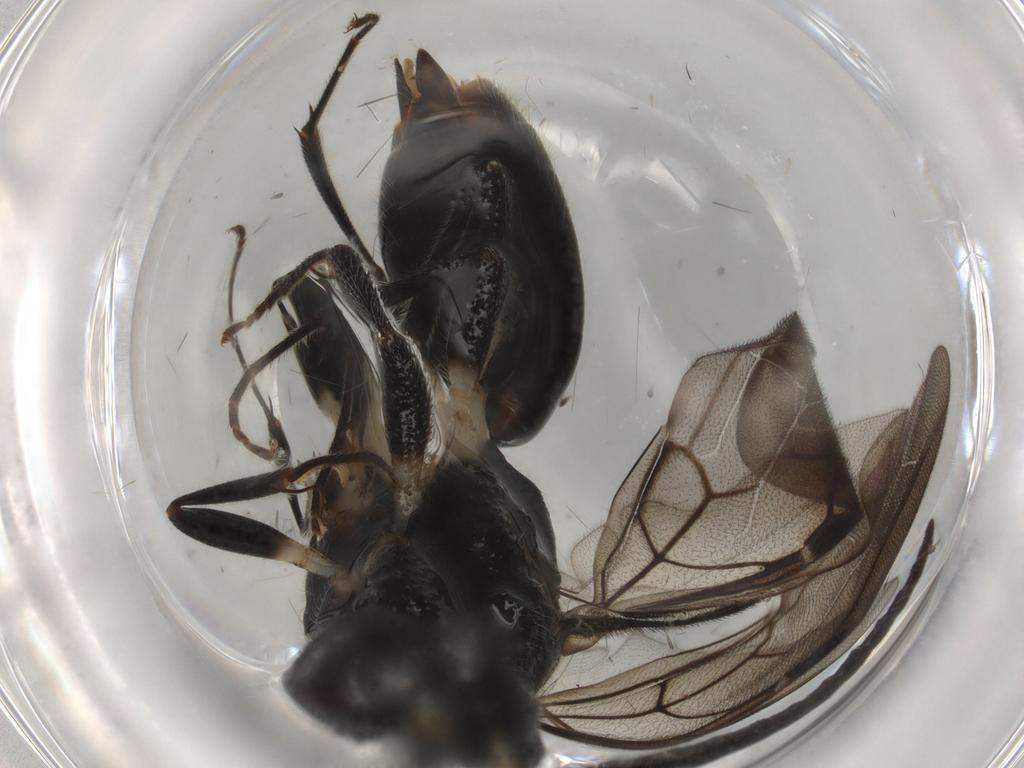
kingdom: Animalia
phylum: Arthropoda
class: Insecta
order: Hymenoptera
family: Bethylidae
